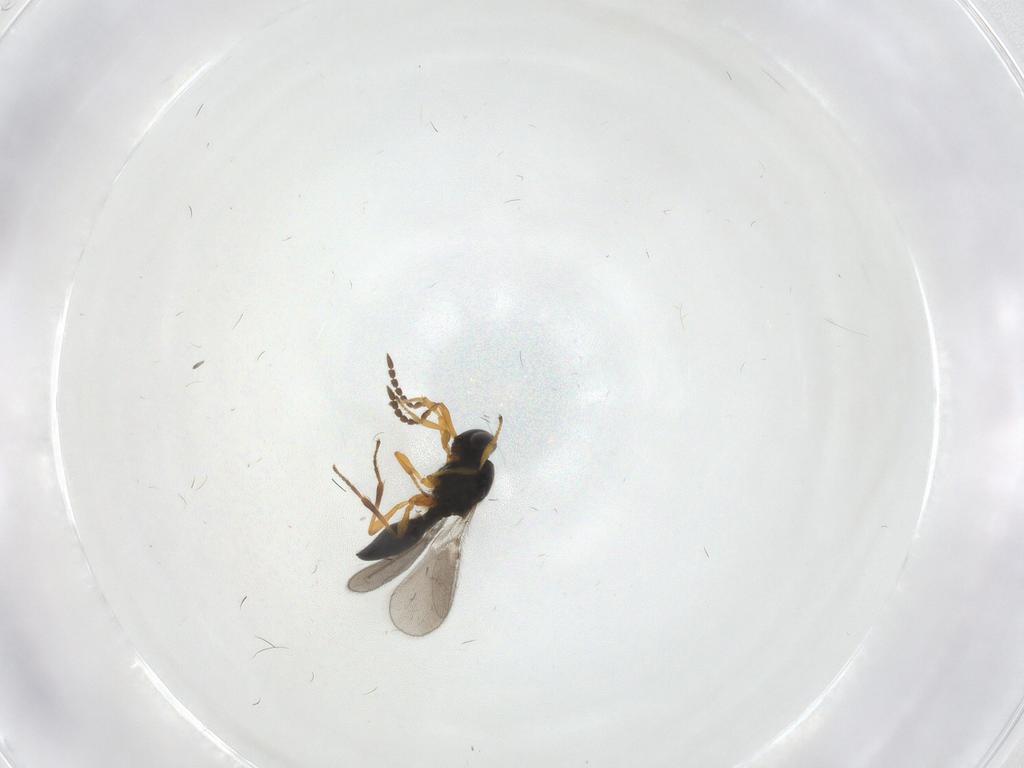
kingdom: Animalia
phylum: Arthropoda
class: Insecta
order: Hymenoptera
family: Platygastridae
